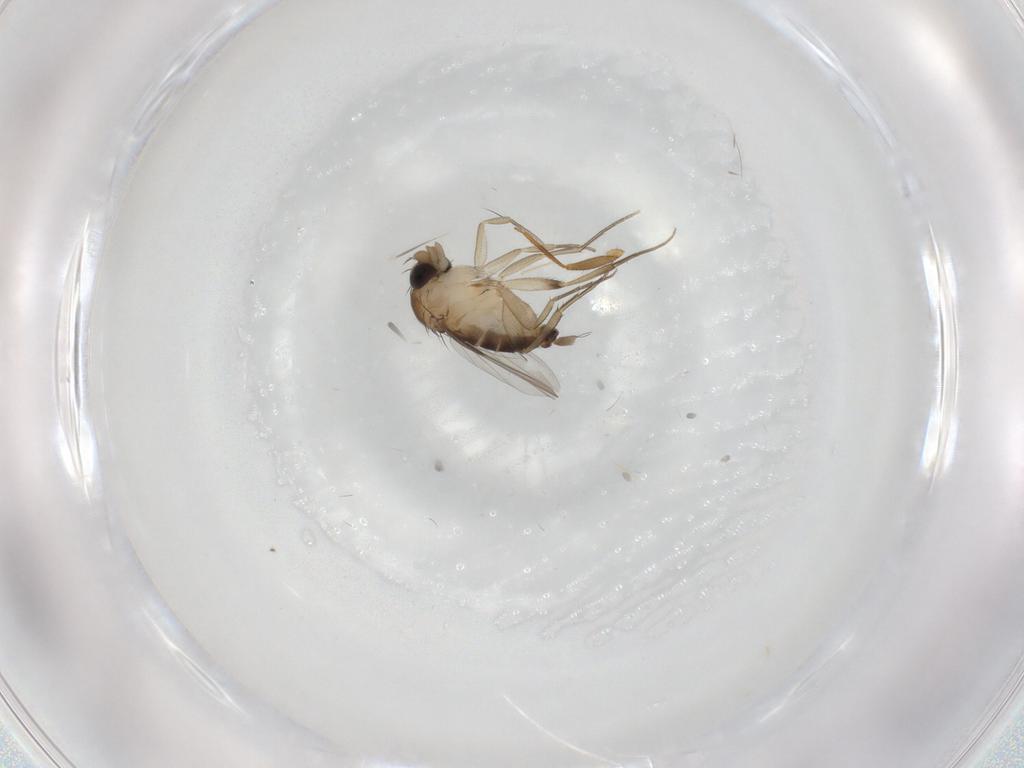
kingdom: Animalia
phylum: Arthropoda
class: Insecta
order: Diptera
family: Phoridae
